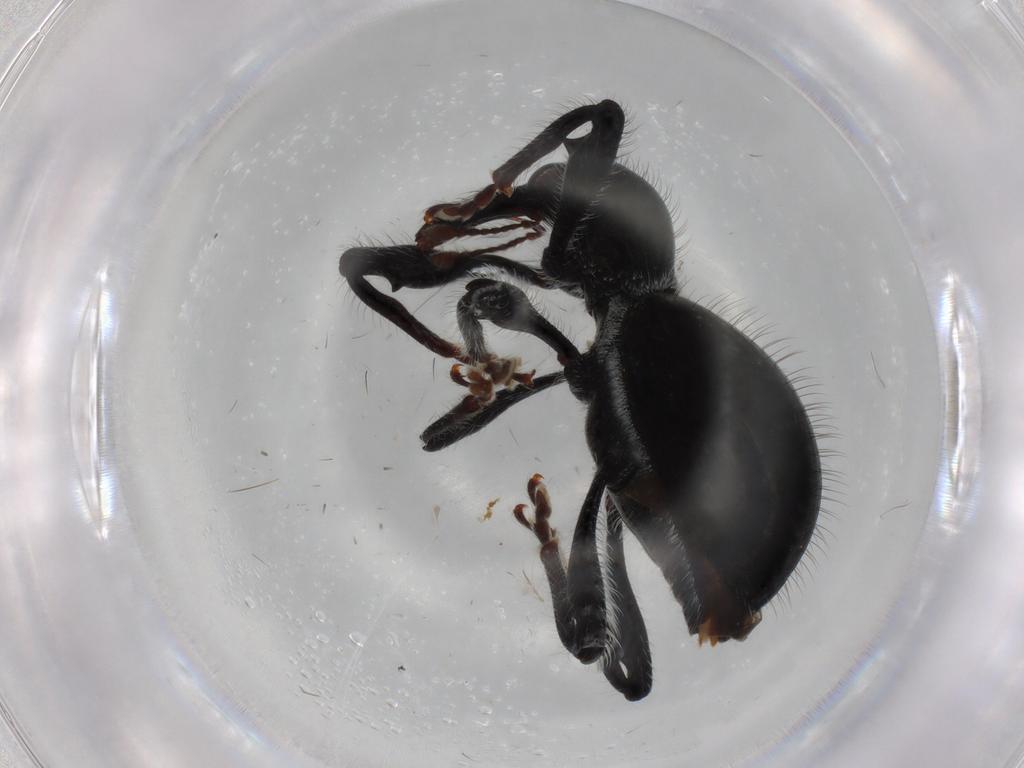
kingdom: Animalia
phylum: Arthropoda
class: Insecta
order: Coleoptera
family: Curculionidae
